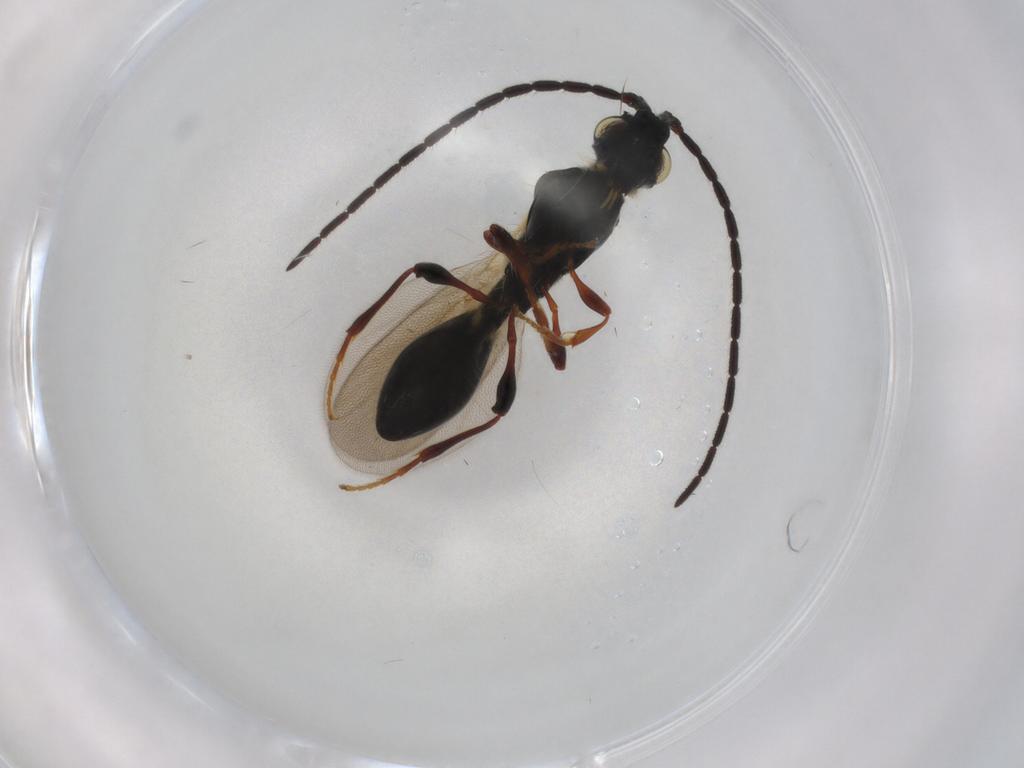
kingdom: Animalia
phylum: Arthropoda
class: Insecta
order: Hymenoptera
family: Diapriidae
